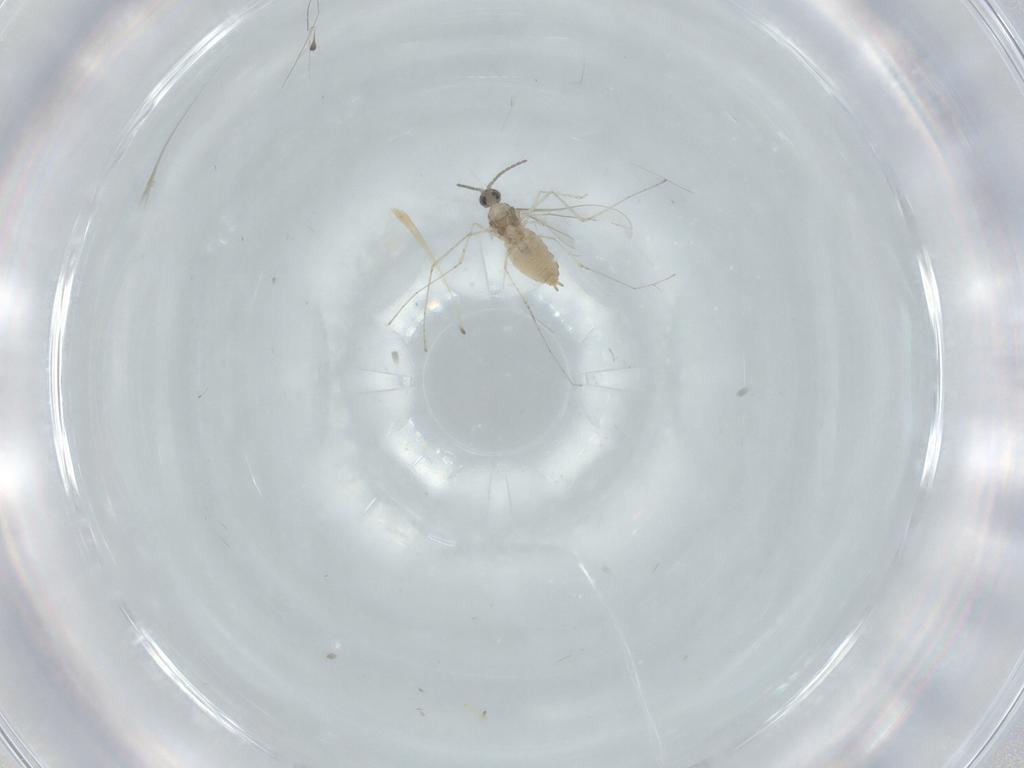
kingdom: Animalia
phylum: Arthropoda
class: Insecta
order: Diptera
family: Cecidomyiidae
